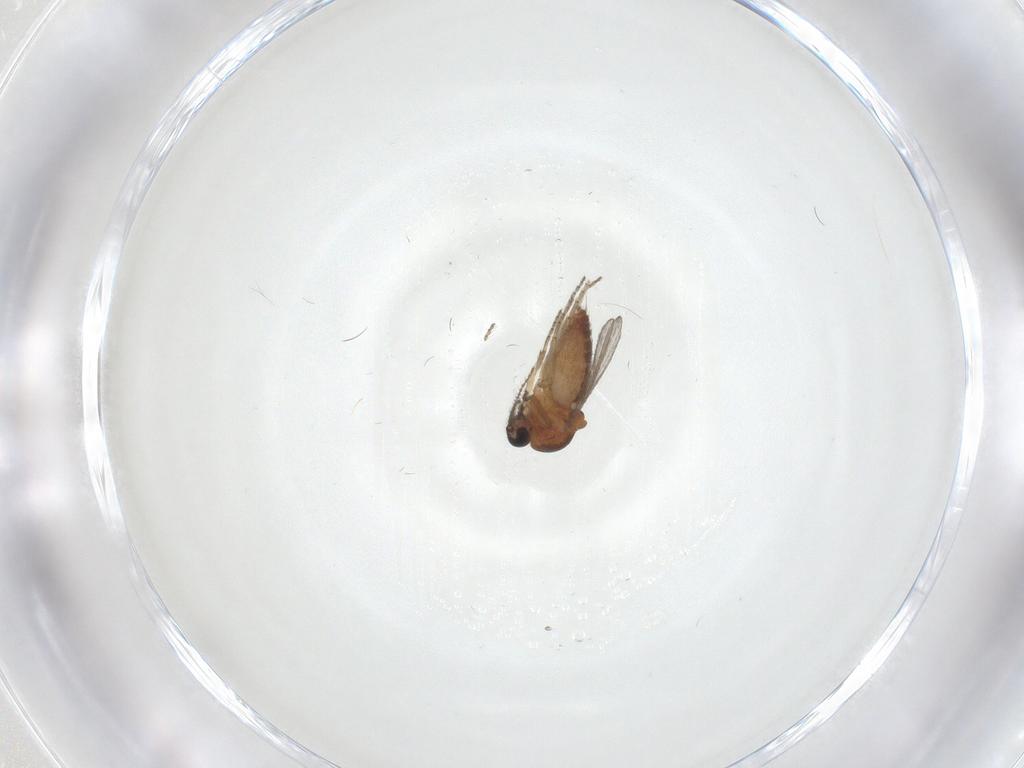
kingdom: Animalia
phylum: Arthropoda
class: Insecta
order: Diptera
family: Ceratopogonidae
